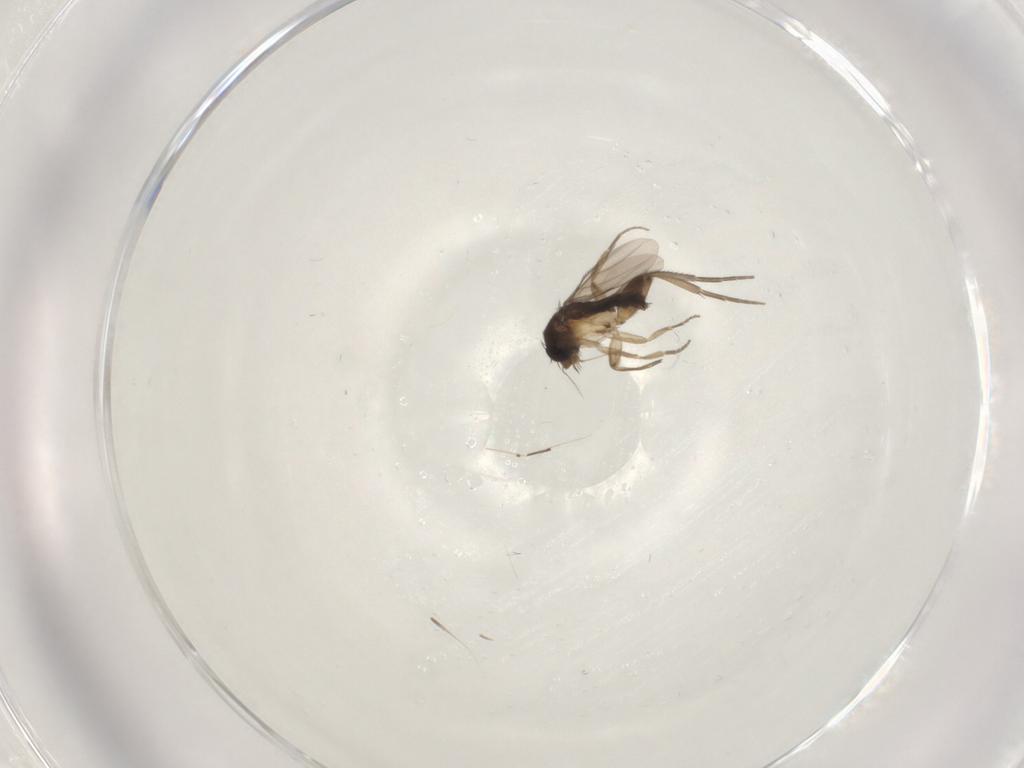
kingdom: Animalia
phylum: Arthropoda
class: Insecta
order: Diptera
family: Phoridae
